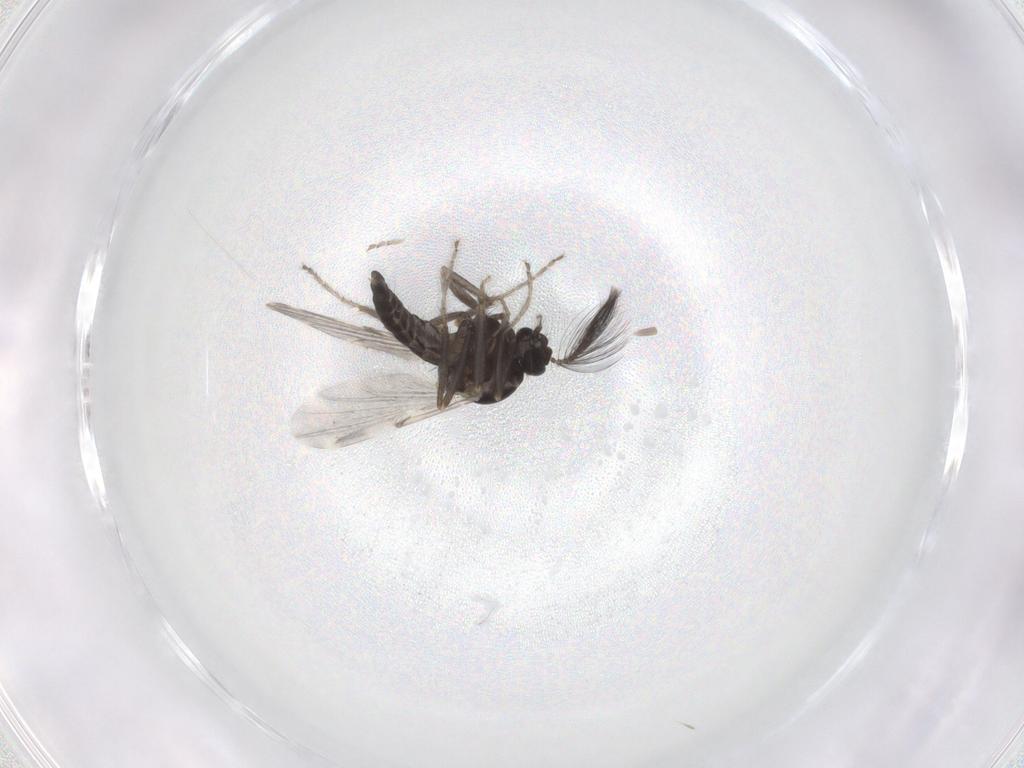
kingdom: Animalia
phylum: Arthropoda
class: Insecta
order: Diptera
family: Ceratopogonidae
